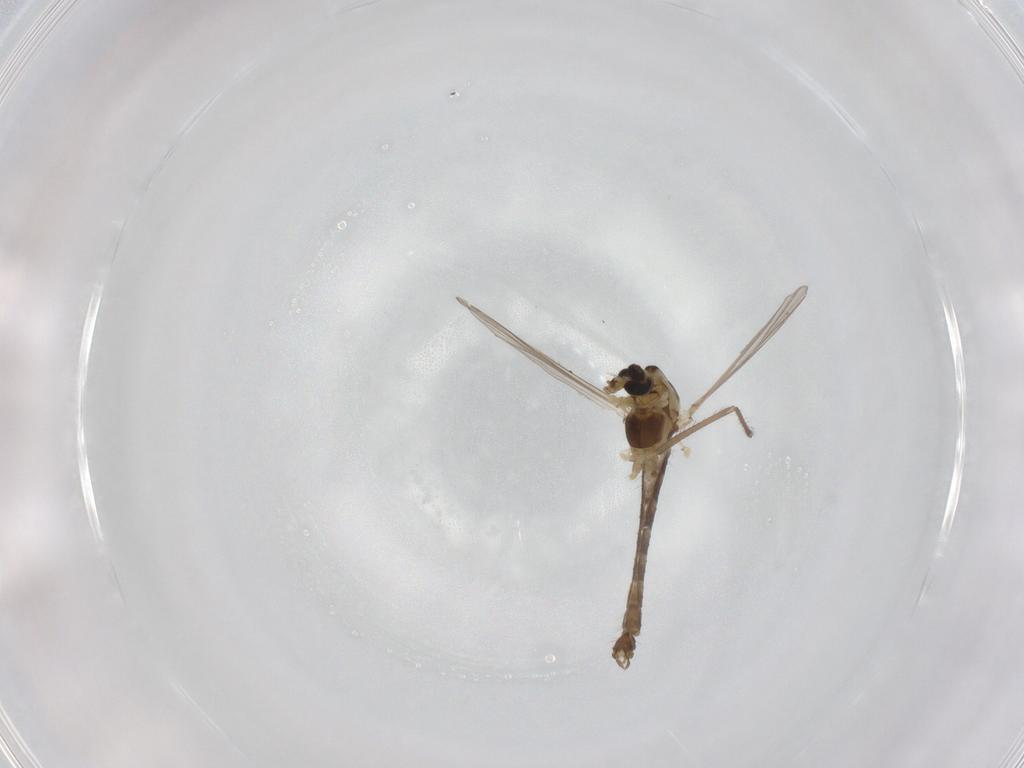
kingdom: Animalia
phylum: Arthropoda
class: Insecta
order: Diptera
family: Chironomidae
